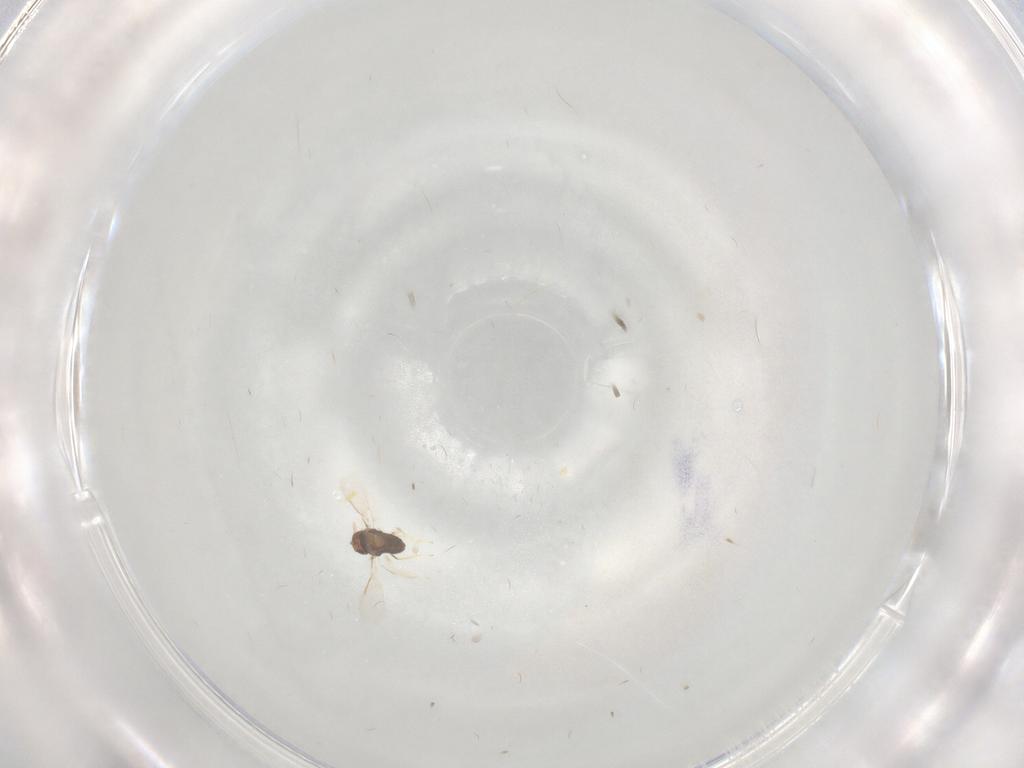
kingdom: Animalia
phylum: Arthropoda
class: Insecta
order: Hymenoptera
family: Aphelinidae
